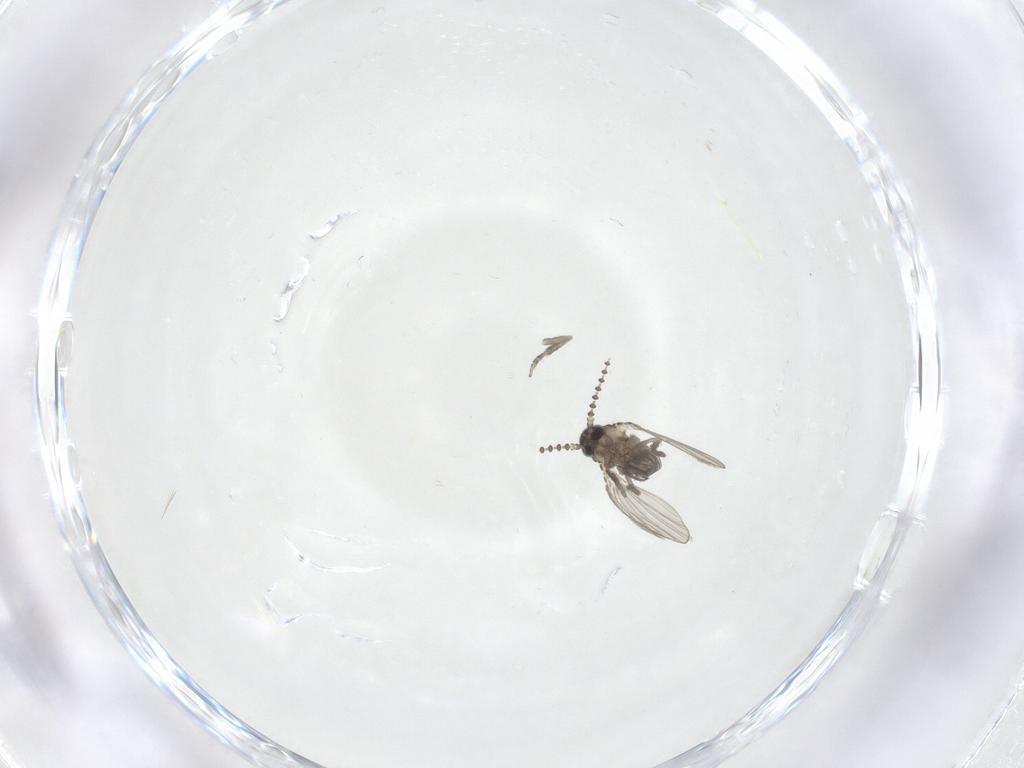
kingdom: Animalia
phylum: Arthropoda
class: Insecta
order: Diptera
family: Psychodidae
